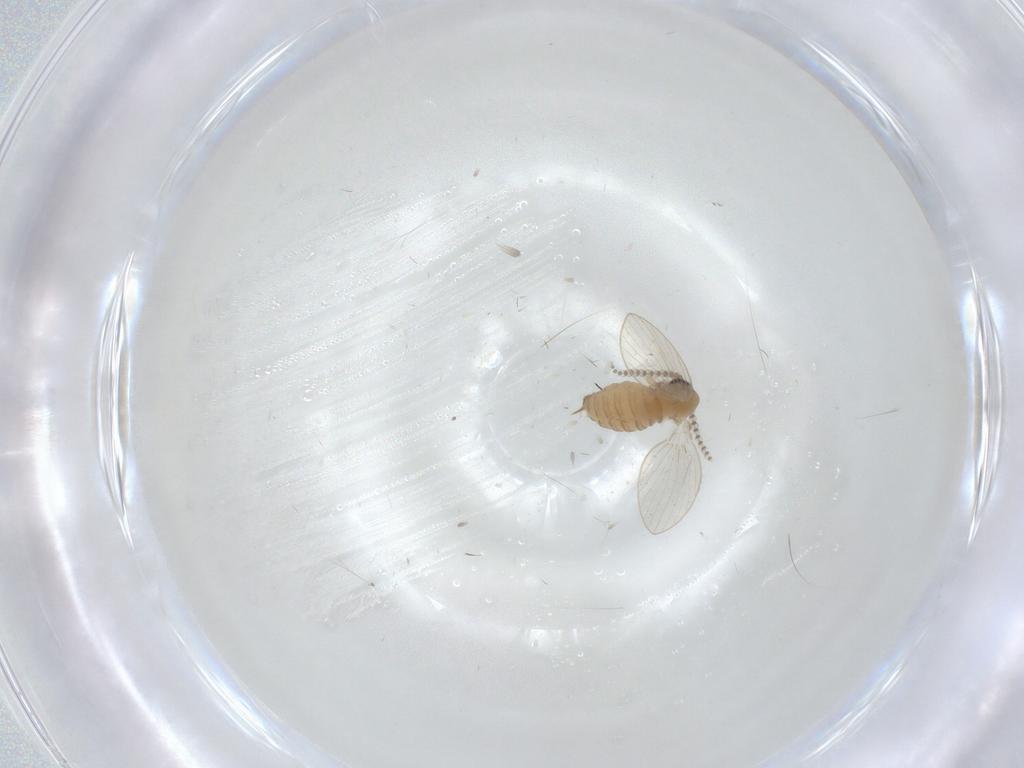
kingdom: Animalia
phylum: Arthropoda
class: Insecta
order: Diptera
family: Psychodidae
